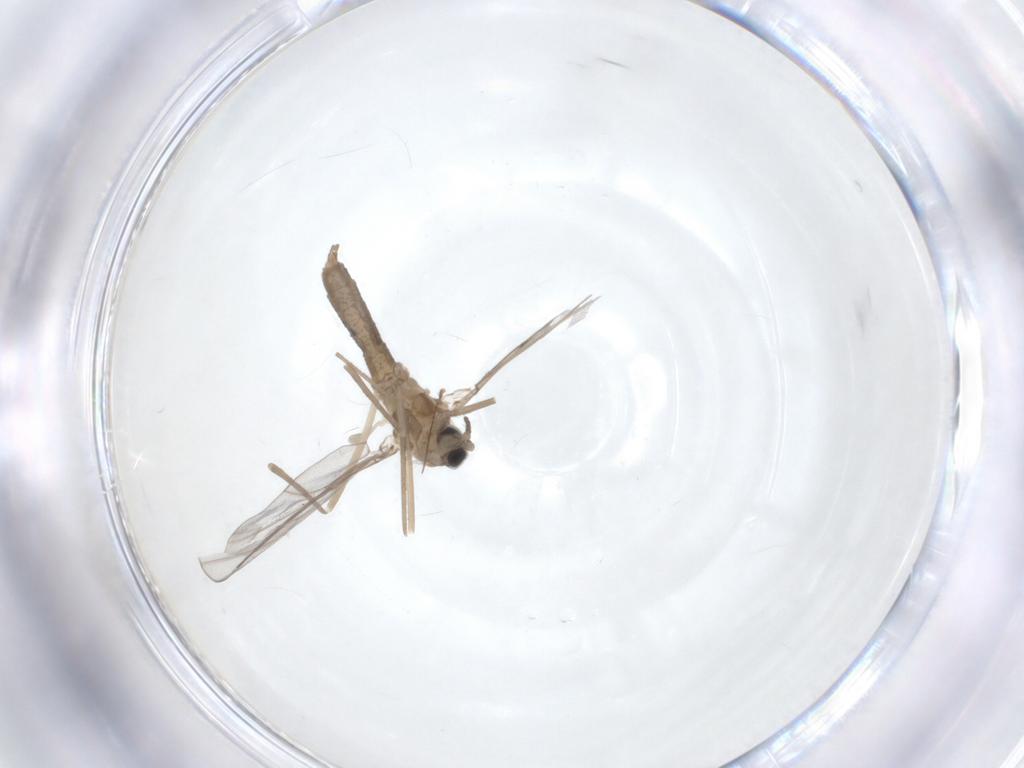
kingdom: Animalia
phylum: Arthropoda
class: Insecta
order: Diptera
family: Cecidomyiidae
